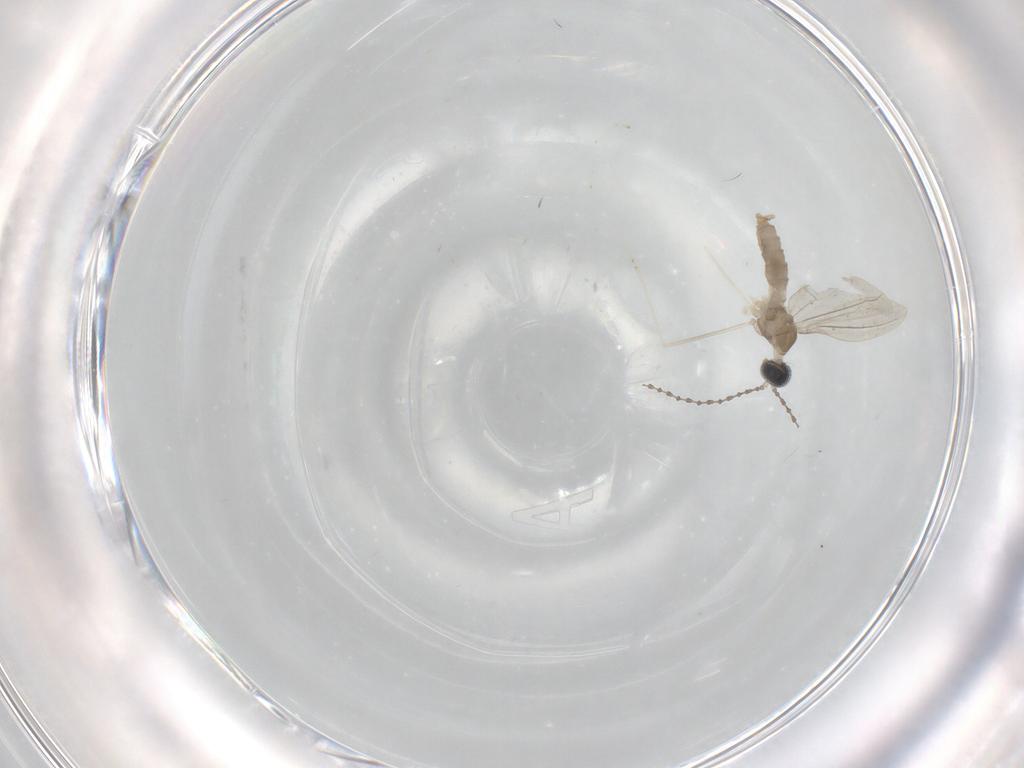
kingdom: Animalia
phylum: Arthropoda
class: Insecta
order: Diptera
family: Cecidomyiidae
